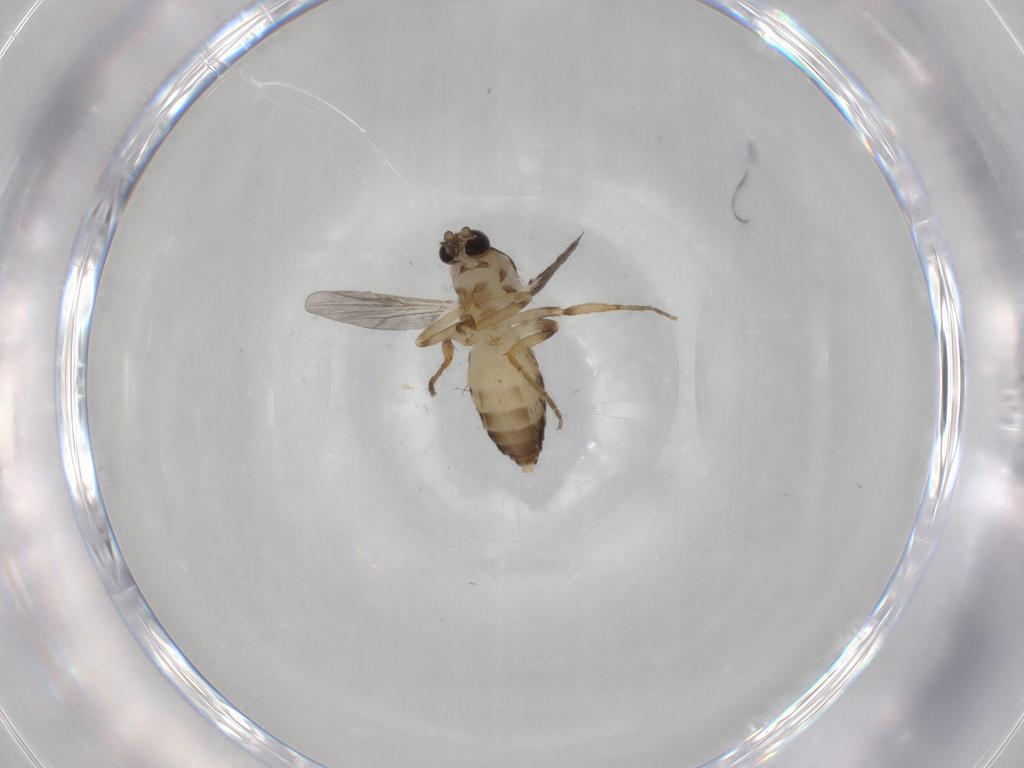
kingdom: Animalia
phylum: Arthropoda
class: Insecta
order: Diptera
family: Ceratopogonidae
